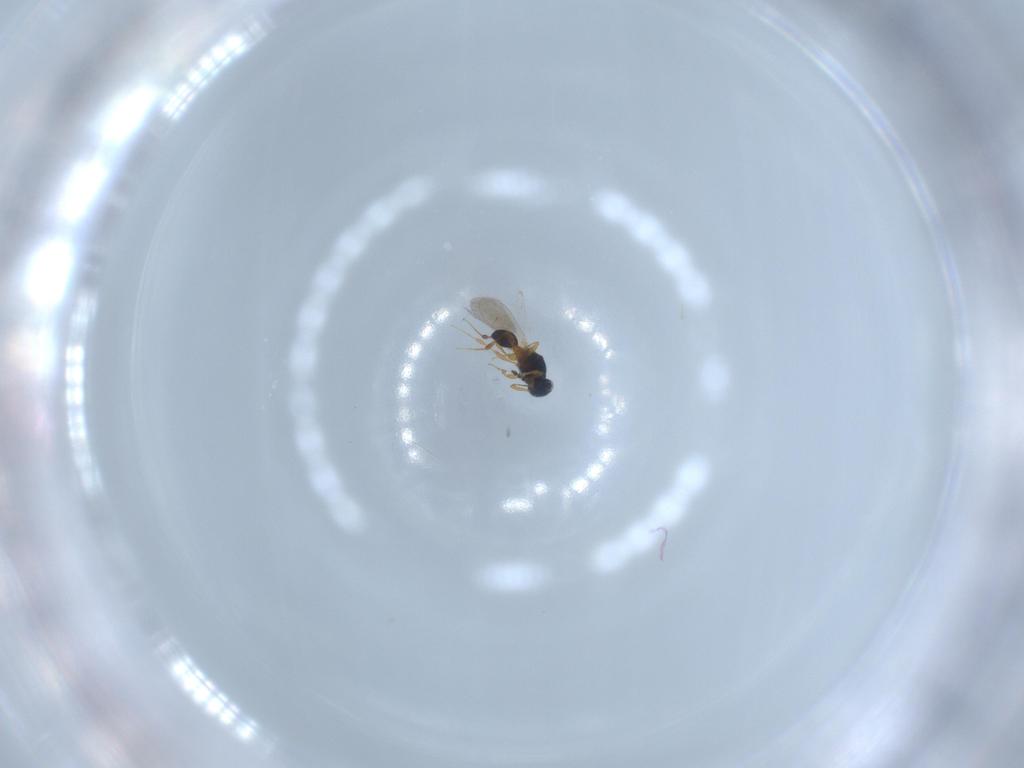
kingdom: Animalia
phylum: Arthropoda
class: Insecta
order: Hymenoptera
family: Platygastridae
